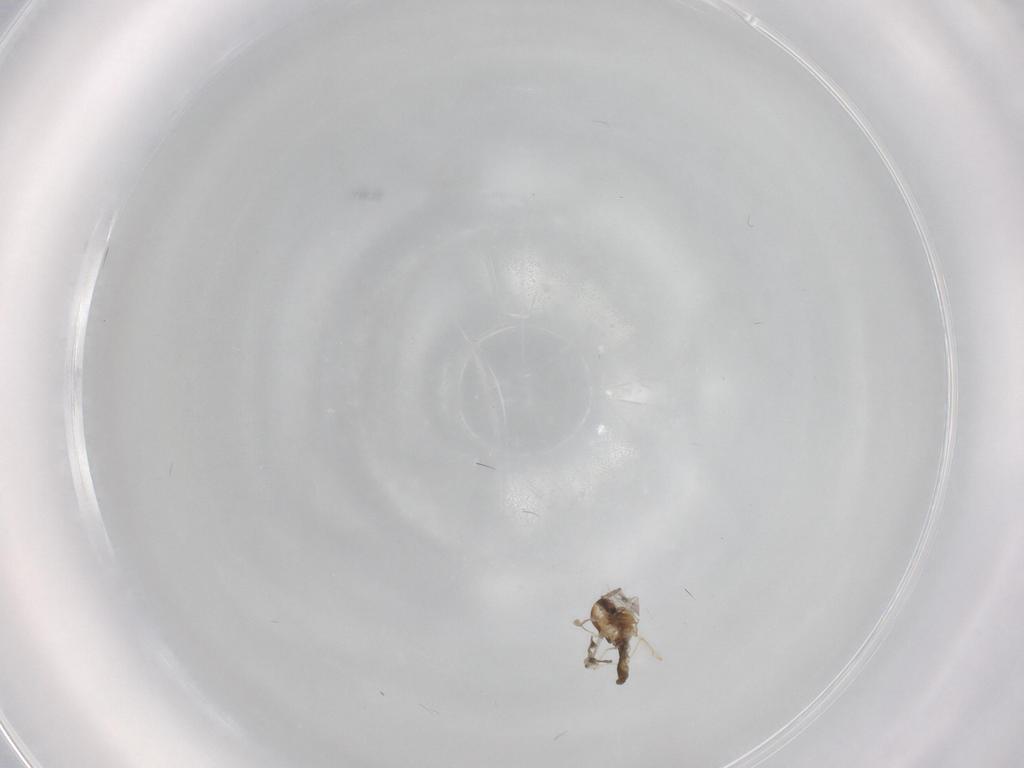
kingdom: Animalia
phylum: Arthropoda
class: Insecta
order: Diptera
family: Chironomidae
